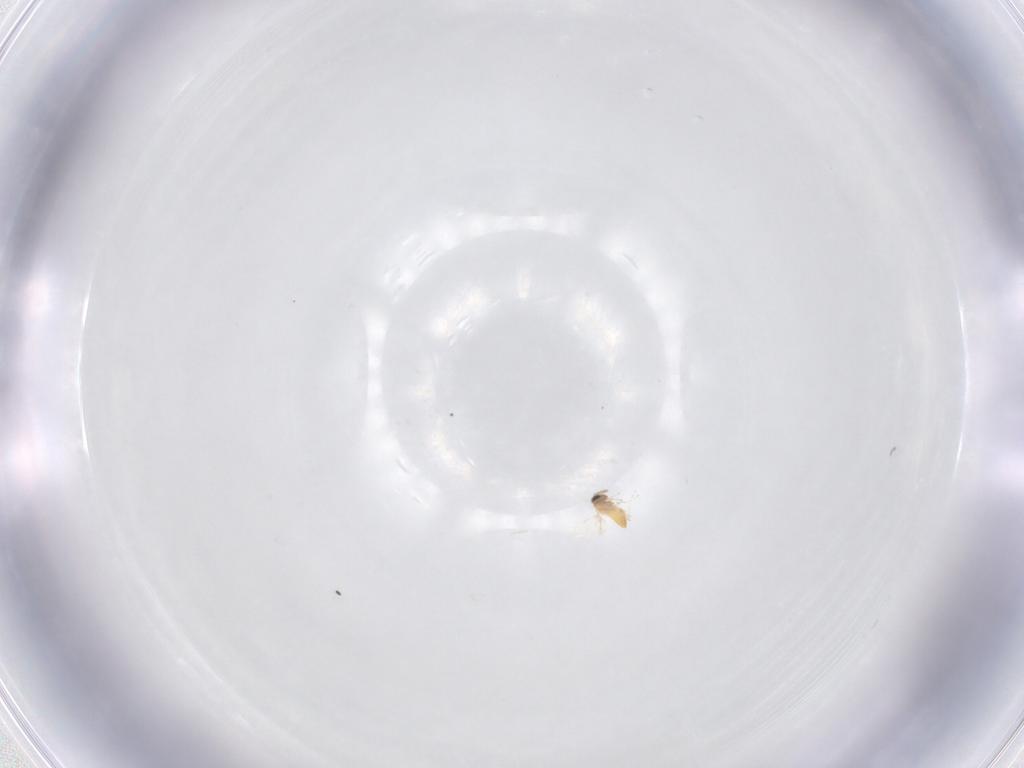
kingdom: Animalia
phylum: Arthropoda
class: Insecta
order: Hymenoptera
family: Trichogrammatidae
